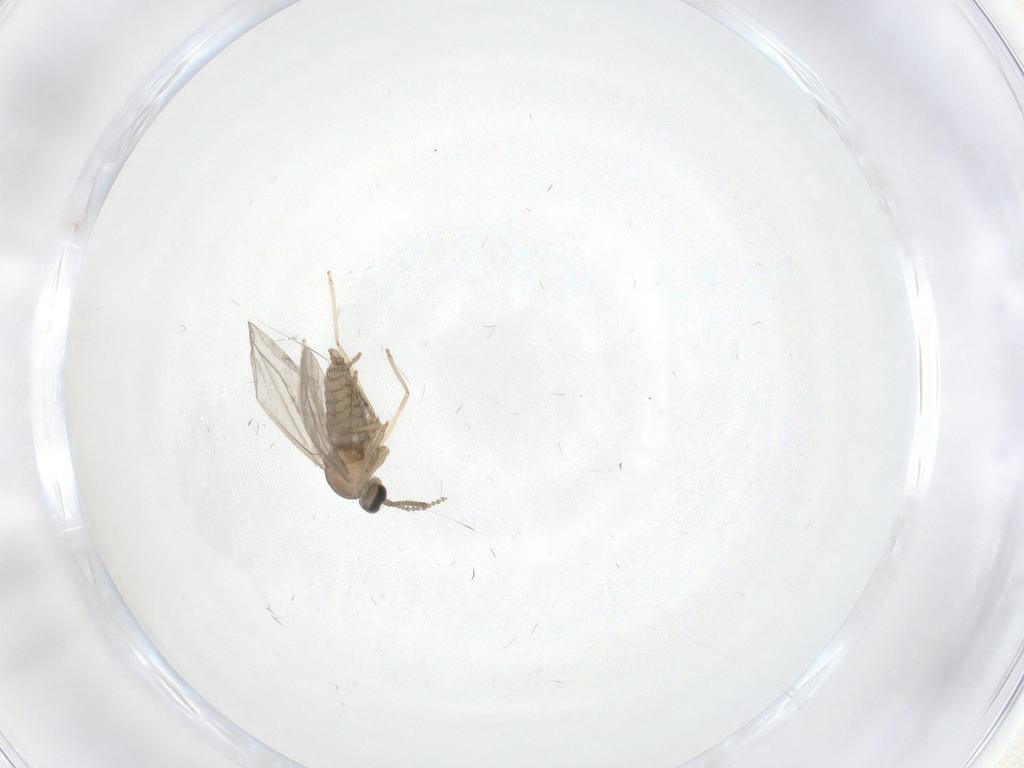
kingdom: Animalia
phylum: Arthropoda
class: Insecta
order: Diptera
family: Cecidomyiidae
